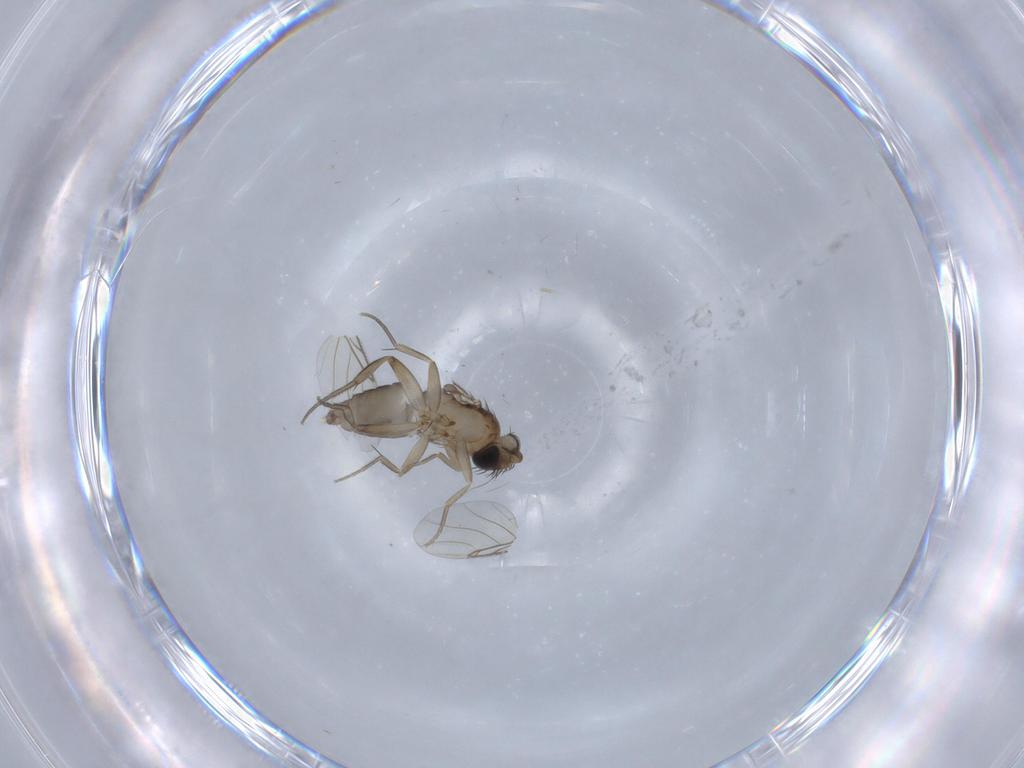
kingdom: Animalia
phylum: Arthropoda
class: Insecta
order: Diptera
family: Phoridae
